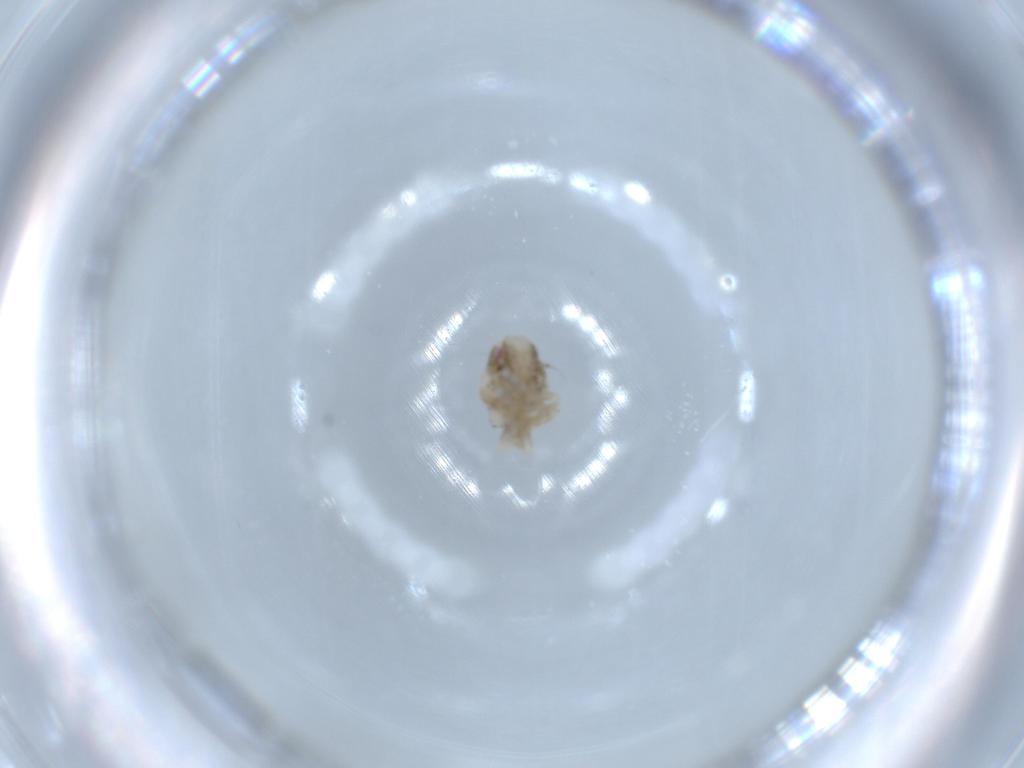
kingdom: Animalia
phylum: Arthropoda
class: Insecta
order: Hemiptera
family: Acanaloniidae
